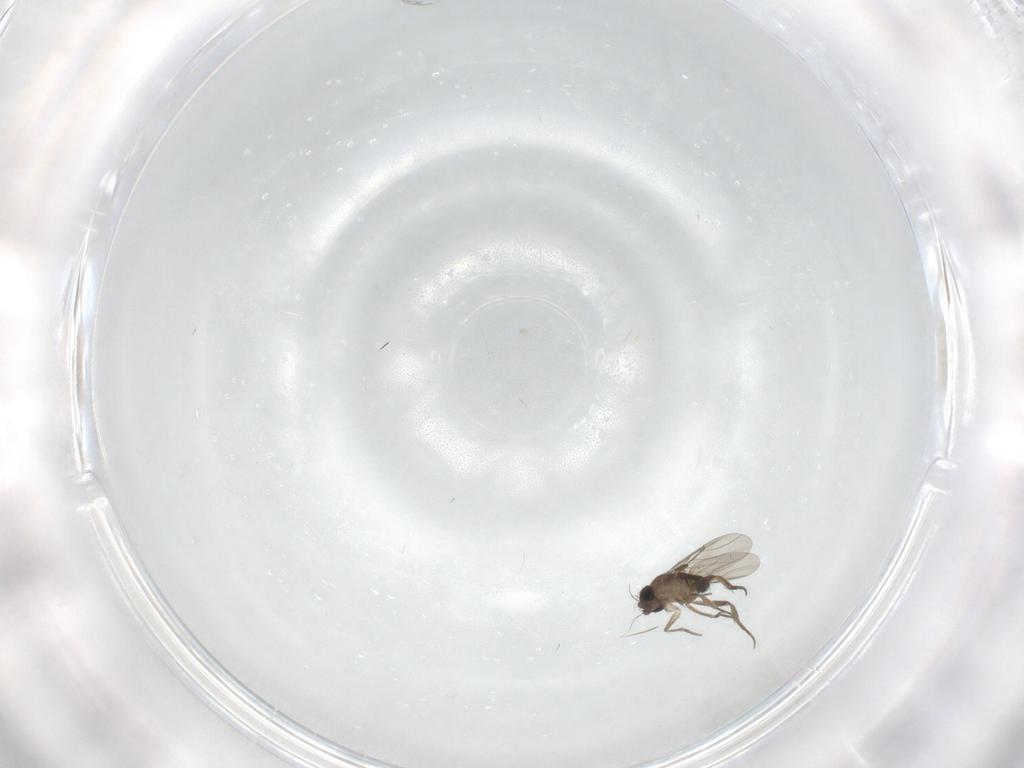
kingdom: Animalia
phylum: Arthropoda
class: Insecta
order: Diptera
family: Phoridae
